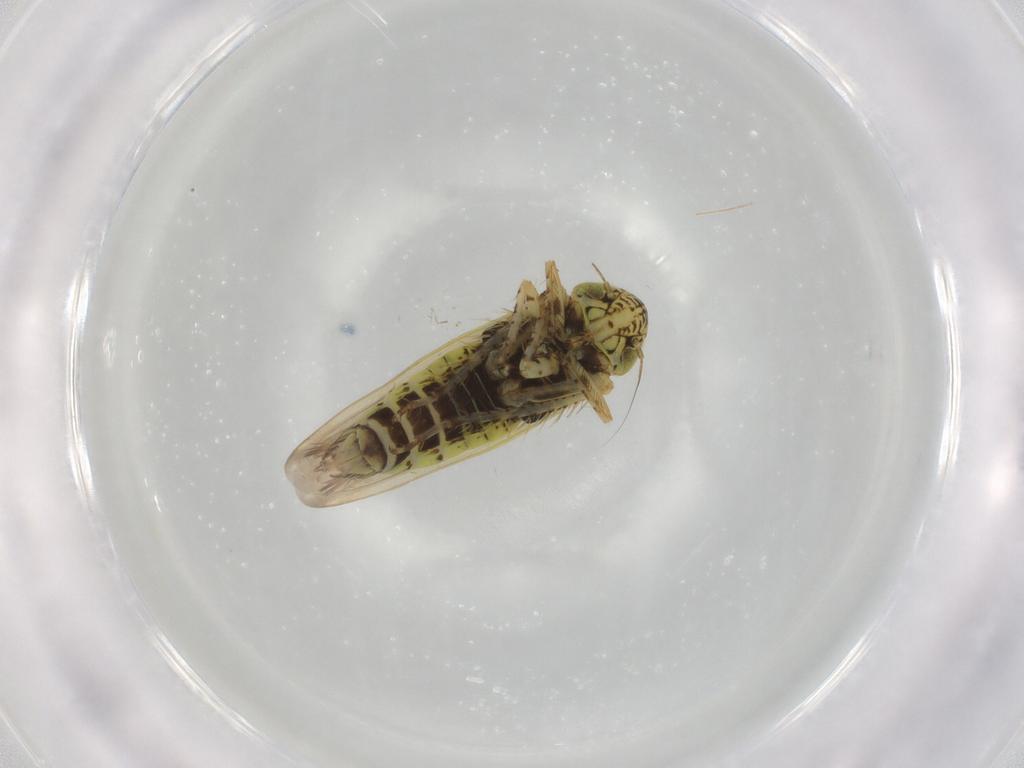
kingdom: Animalia
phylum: Arthropoda
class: Insecta
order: Hemiptera
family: Cicadellidae
